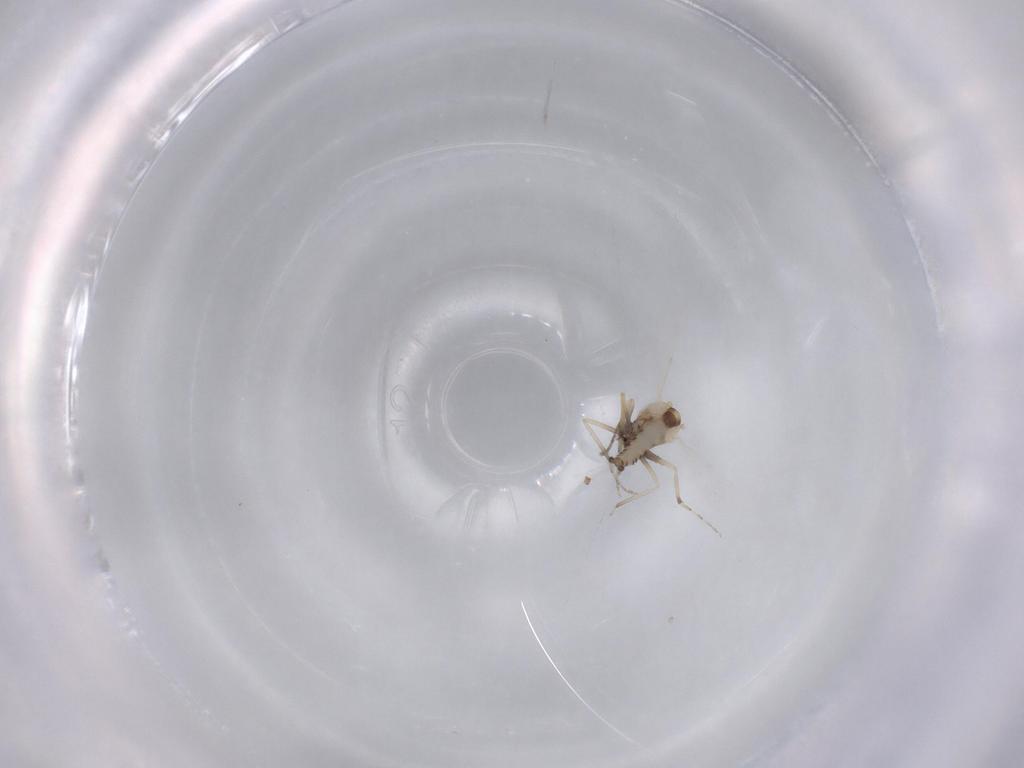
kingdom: Animalia
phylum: Arthropoda
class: Insecta
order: Diptera
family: Ceratopogonidae
